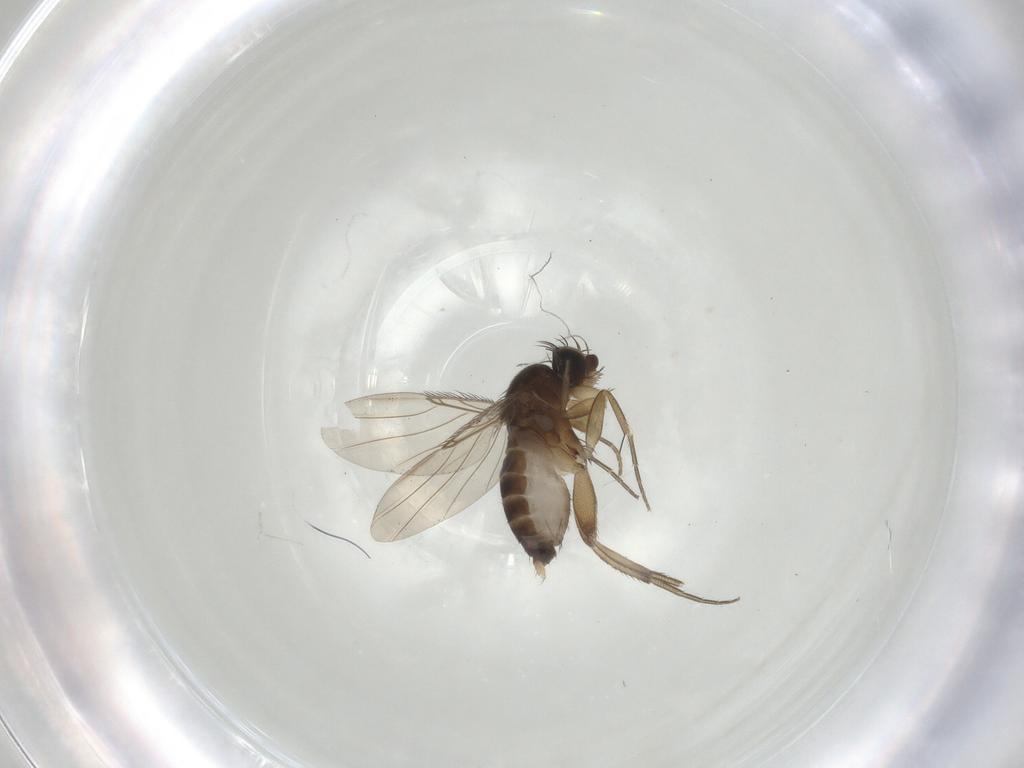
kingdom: Animalia
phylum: Arthropoda
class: Insecta
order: Diptera
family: Phoridae
